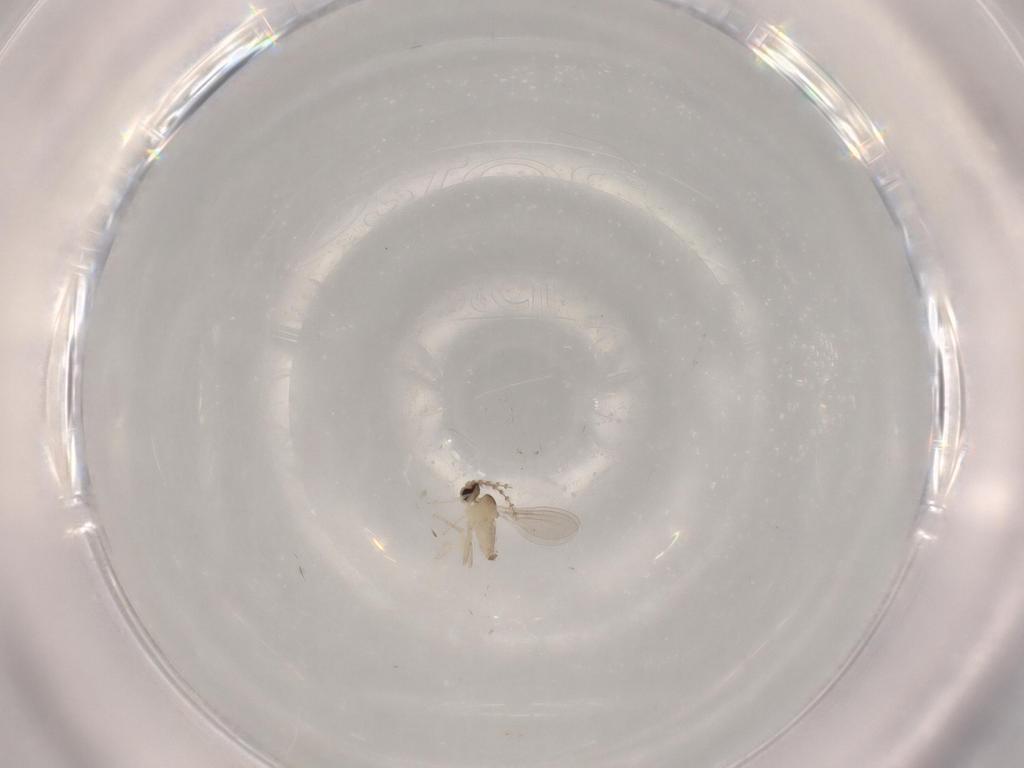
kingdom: Animalia
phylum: Arthropoda
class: Insecta
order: Diptera
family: Cecidomyiidae
